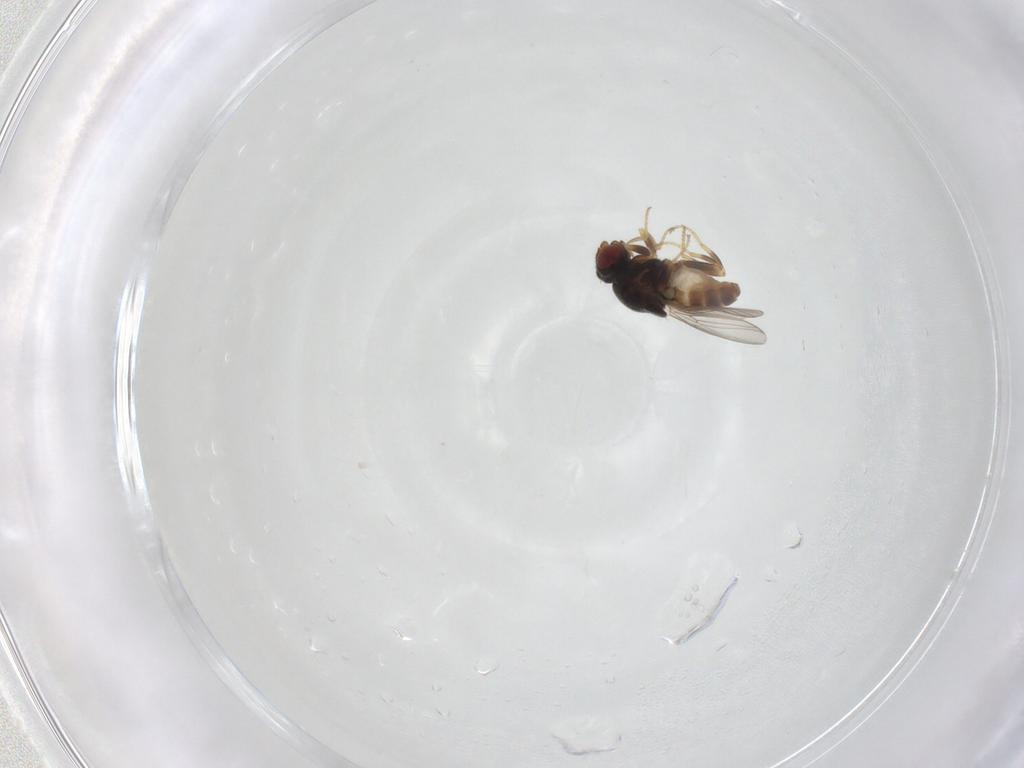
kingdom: Animalia
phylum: Arthropoda
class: Insecta
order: Diptera
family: Chloropidae
